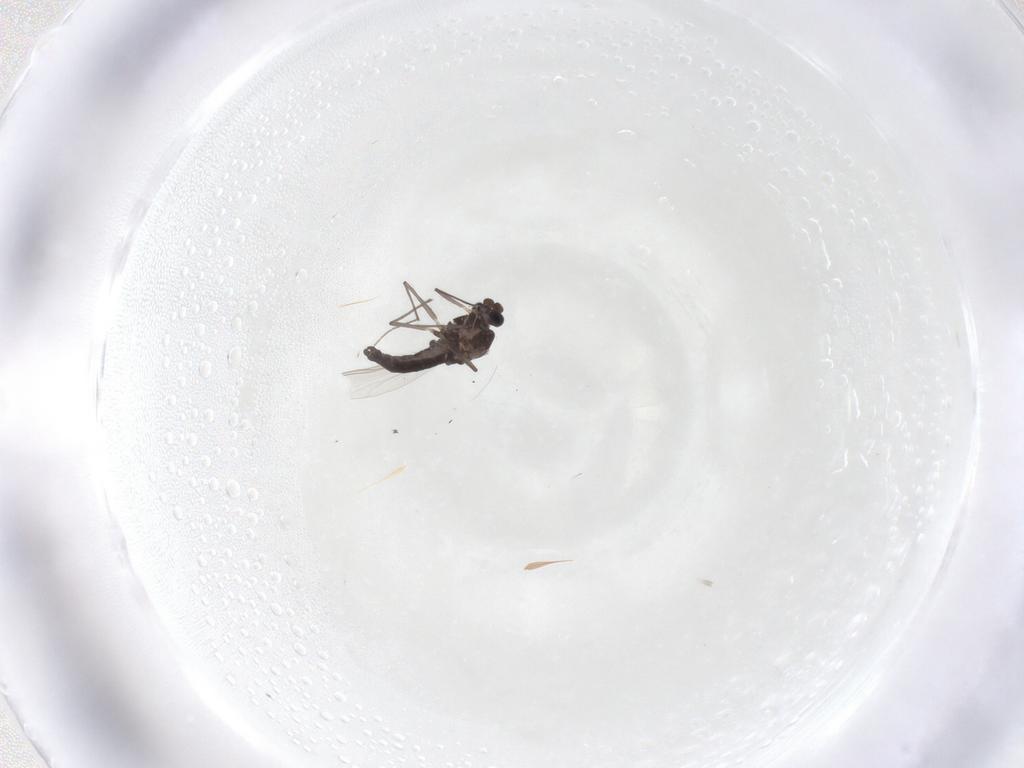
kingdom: Animalia
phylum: Arthropoda
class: Insecta
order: Diptera
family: Chironomidae
